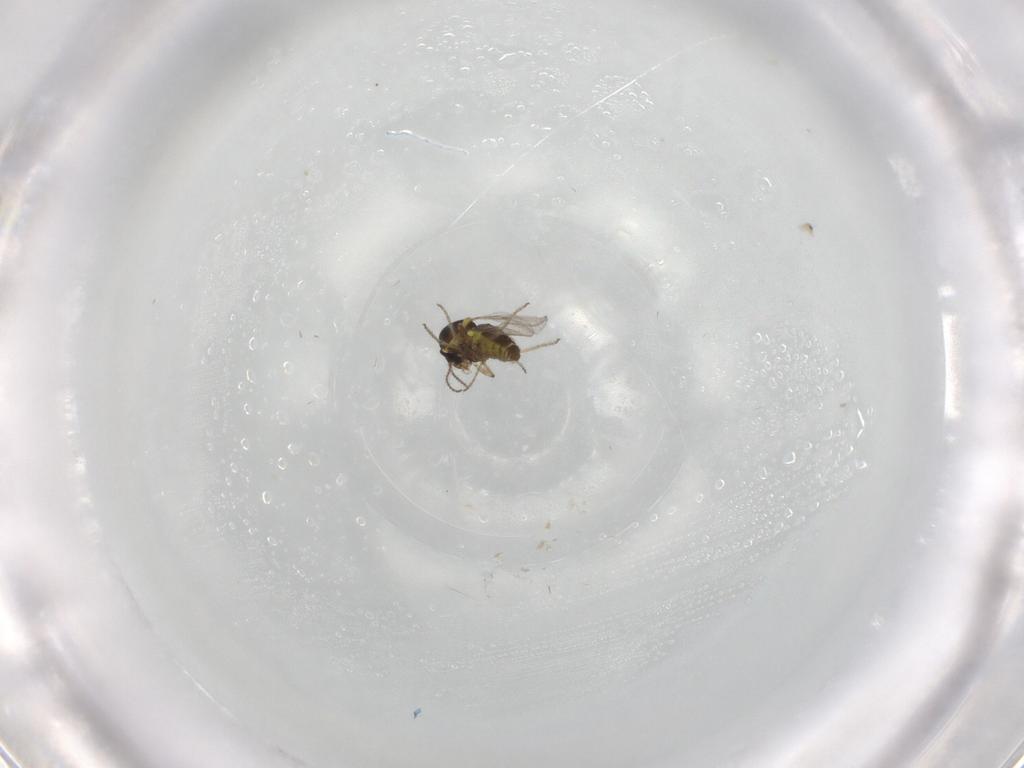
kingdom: Animalia
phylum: Arthropoda
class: Insecta
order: Diptera
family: Ceratopogonidae
